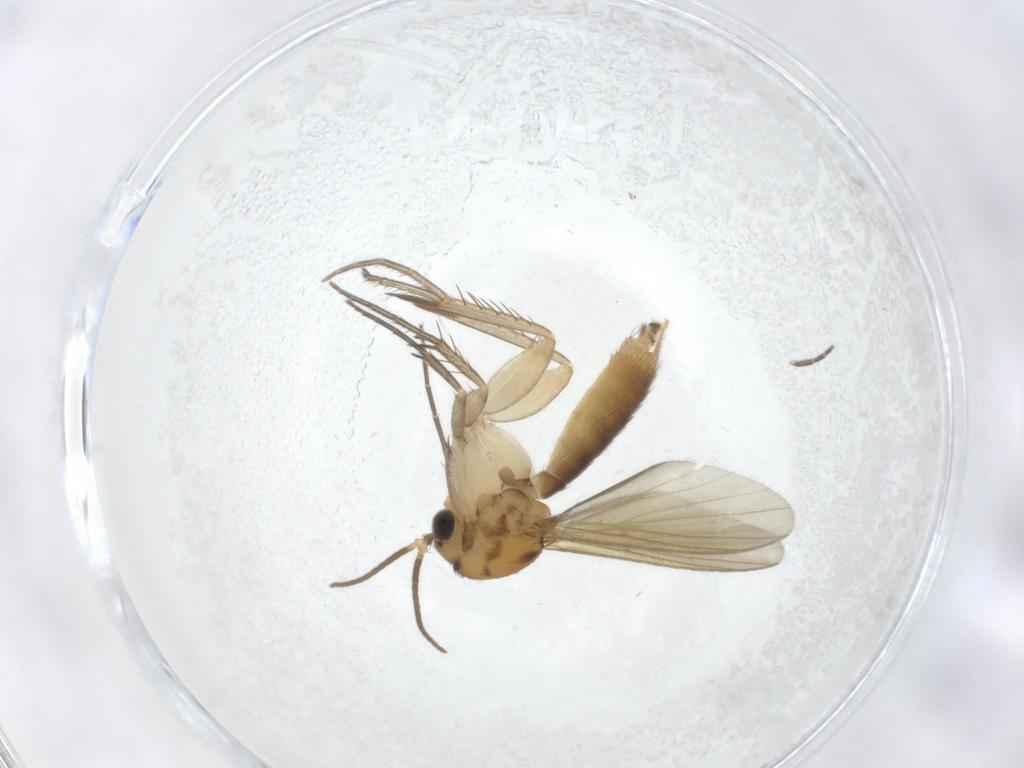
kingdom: Animalia
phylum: Arthropoda
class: Insecta
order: Diptera
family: Mycetophilidae
